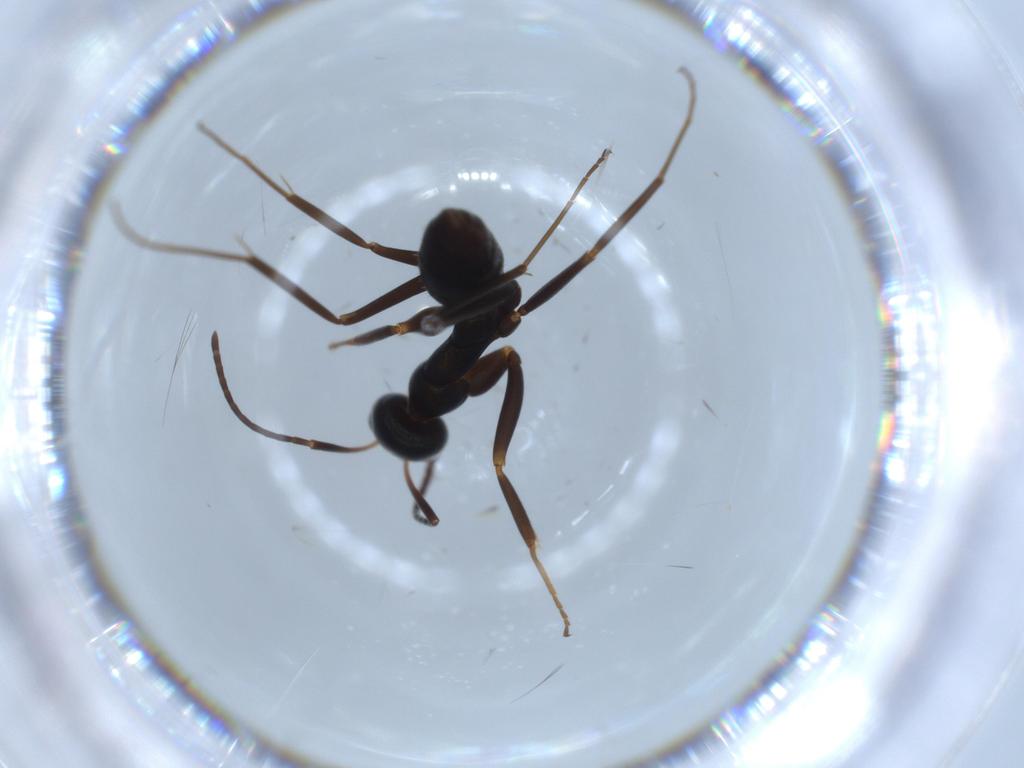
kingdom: Animalia
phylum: Arthropoda
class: Insecta
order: Hymenoptera
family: Formicidae
